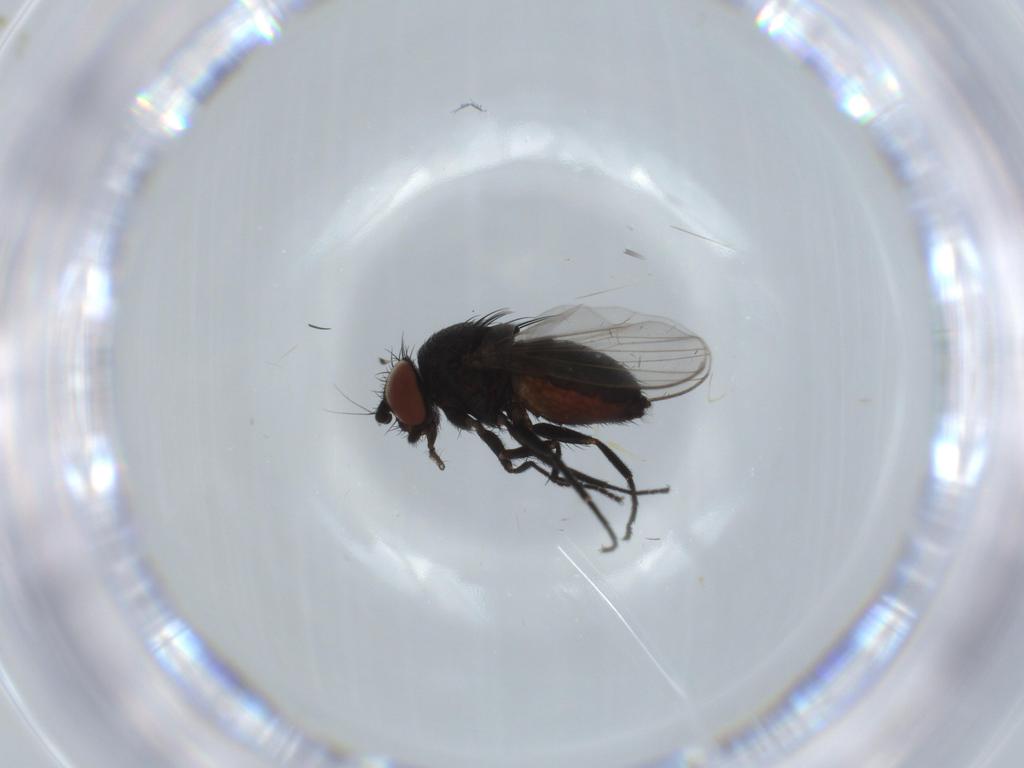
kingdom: Animalia
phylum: Arthropoda
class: Insecta
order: Diptera
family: Milichiidae
